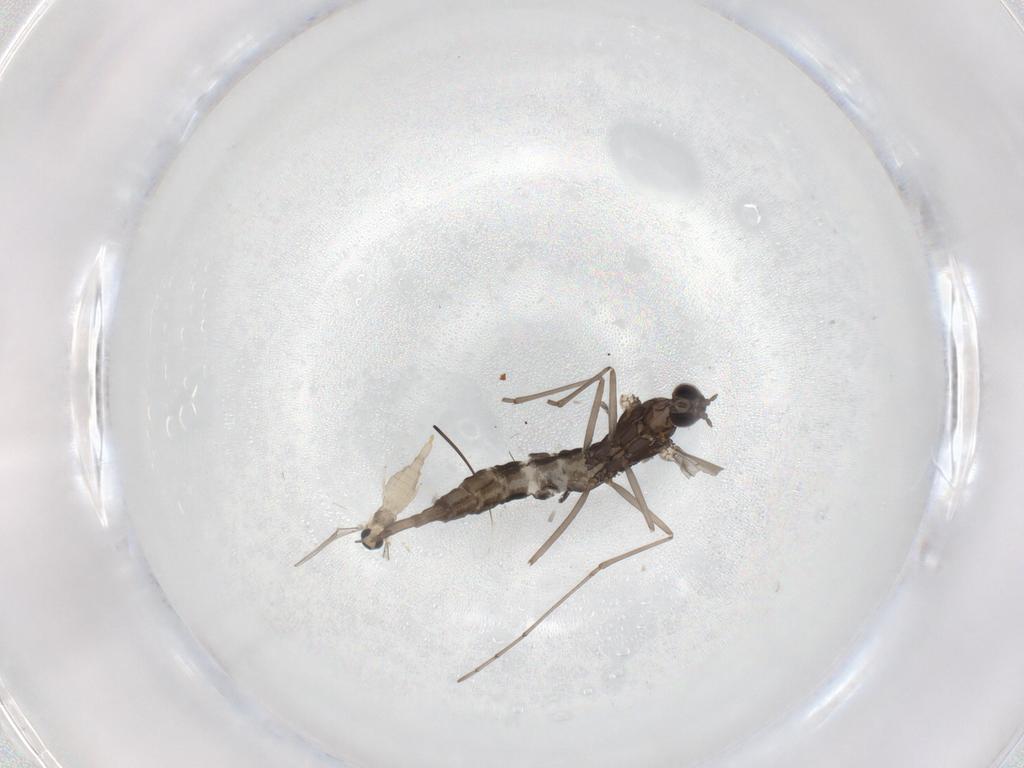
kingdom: Animalia
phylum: Arthropoda
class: Insecta
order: Diptera
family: Cecidomyiidae
